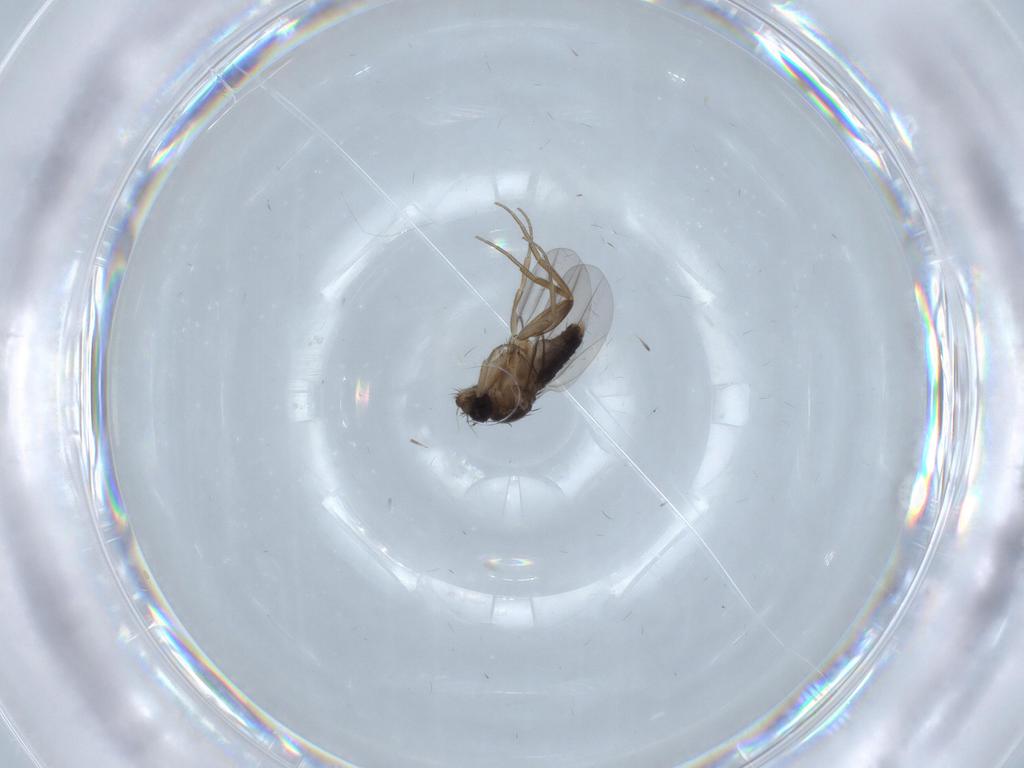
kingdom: Animalia
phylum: Arthropoda
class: Insecta
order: Diptera
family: Phoridae
